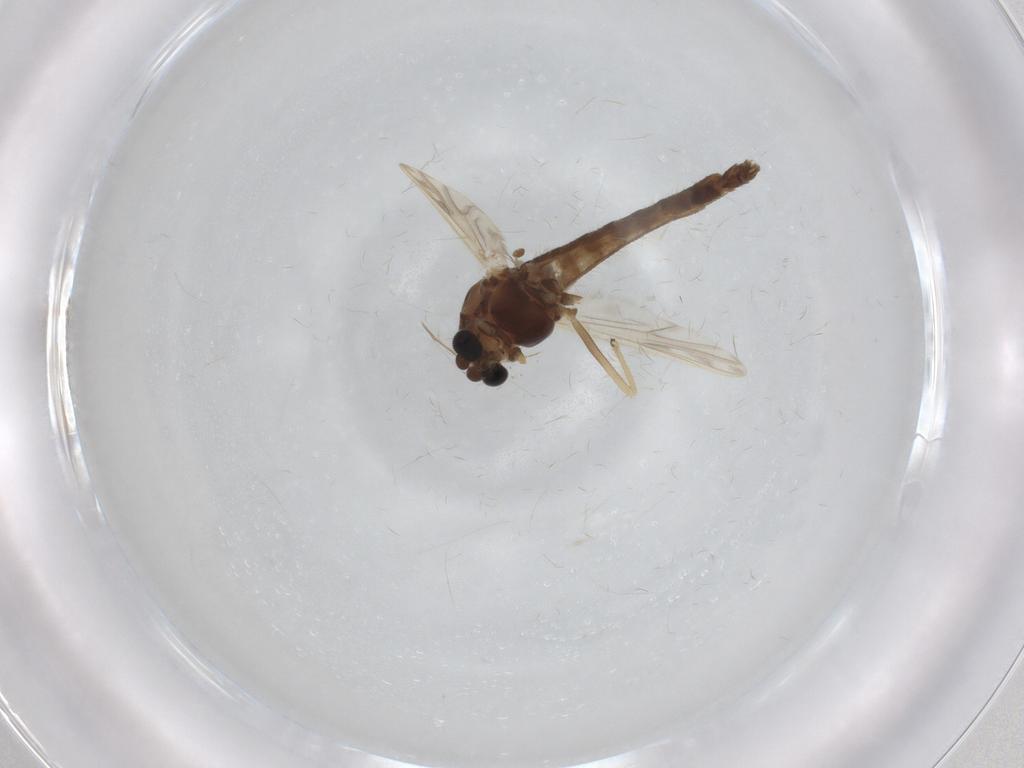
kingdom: Animalia
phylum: Arthropoda
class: Insecta
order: Diptera
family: Chironomidae
